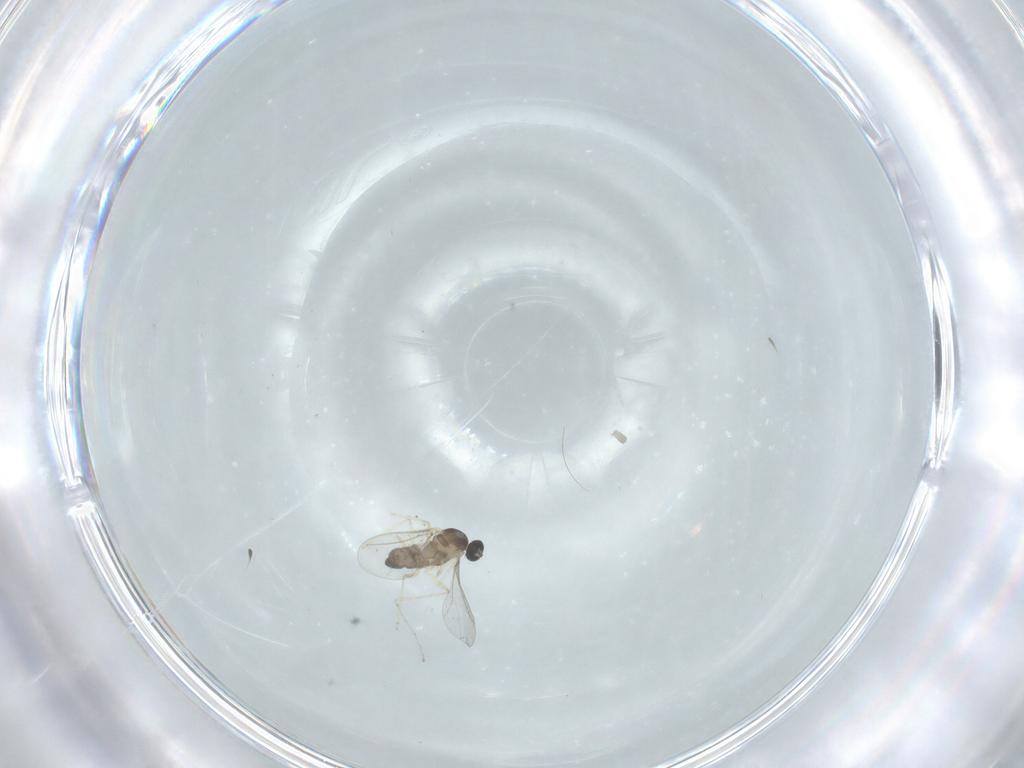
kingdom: Animalia
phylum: Arthropoda
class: Insecta
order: Diptera
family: Cecidomyiidae
